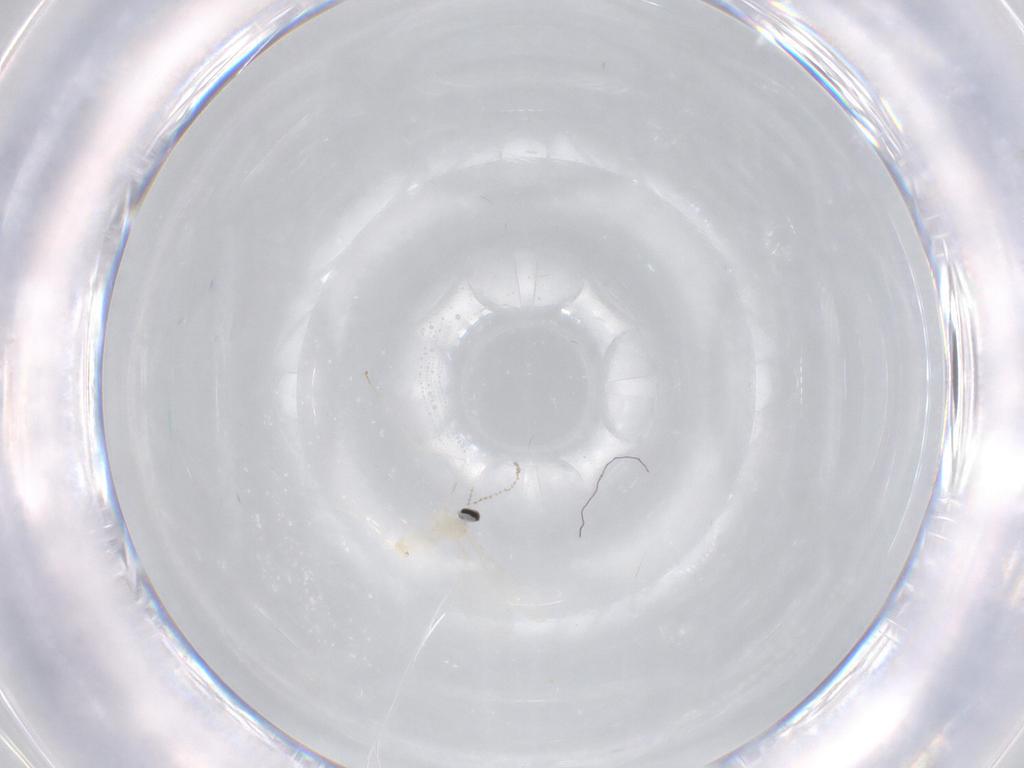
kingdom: Animalia
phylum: Arthropoda
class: Insecta
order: Diptera
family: Cecidomyiidae
